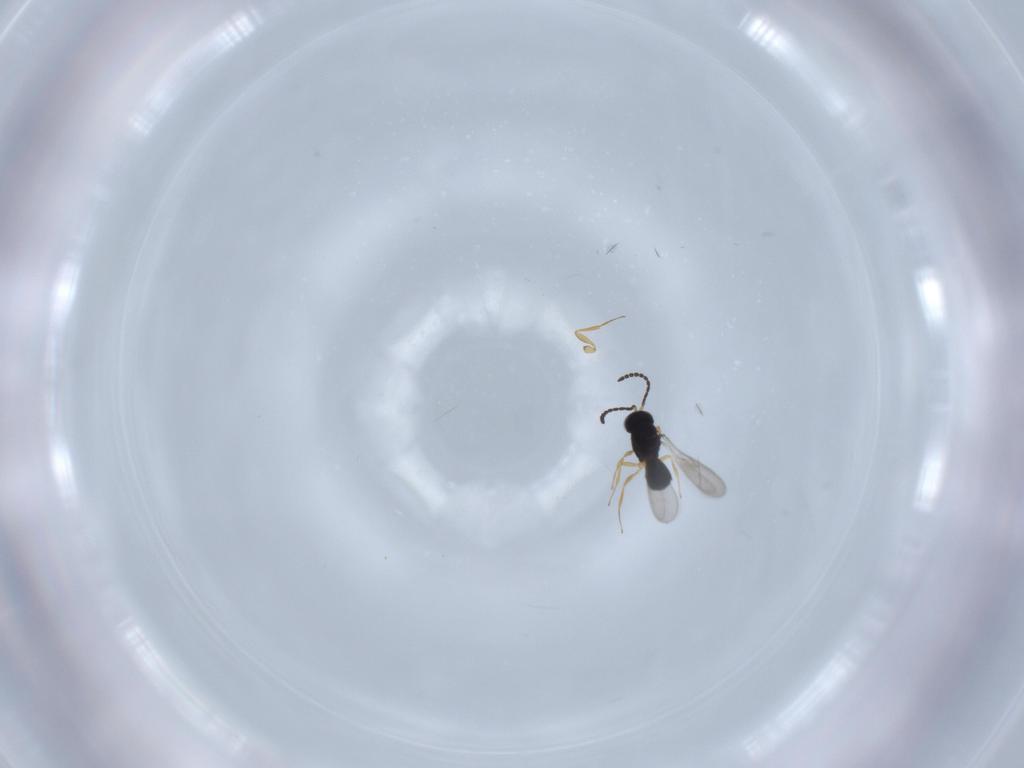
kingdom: Animalia
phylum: Arthropoda
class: Insecta
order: Hymenoptera
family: Scelionidae
